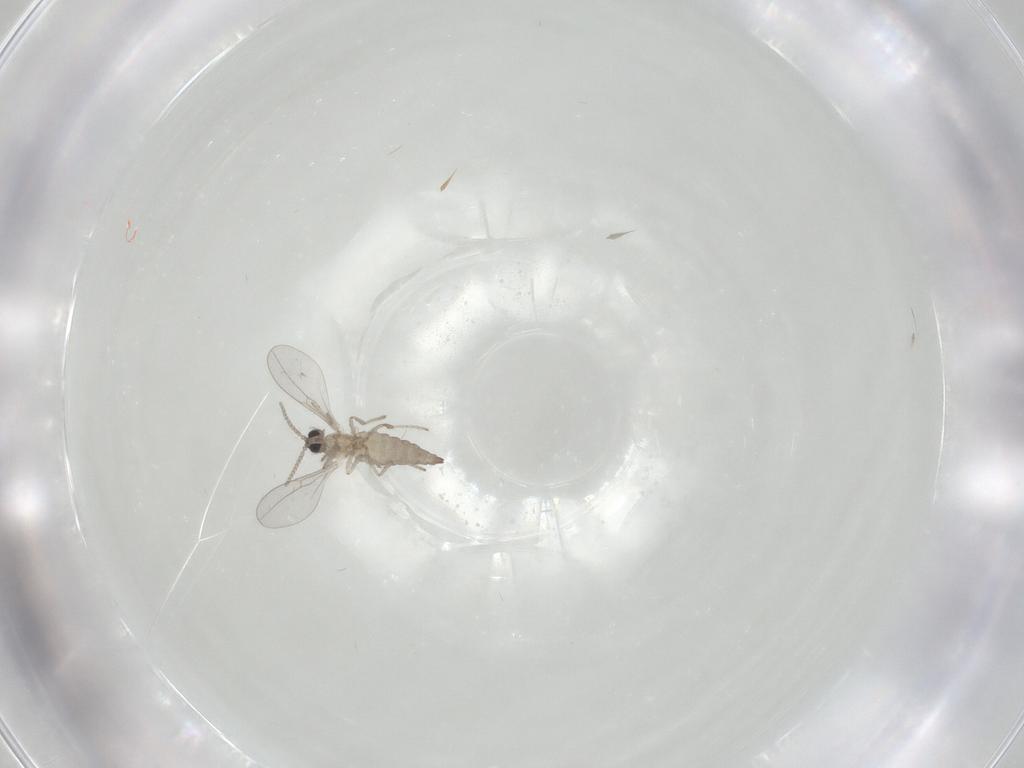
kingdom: Animalia
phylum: Arthropoda
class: Insecta
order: Diptera
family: Cecidomyiidae
